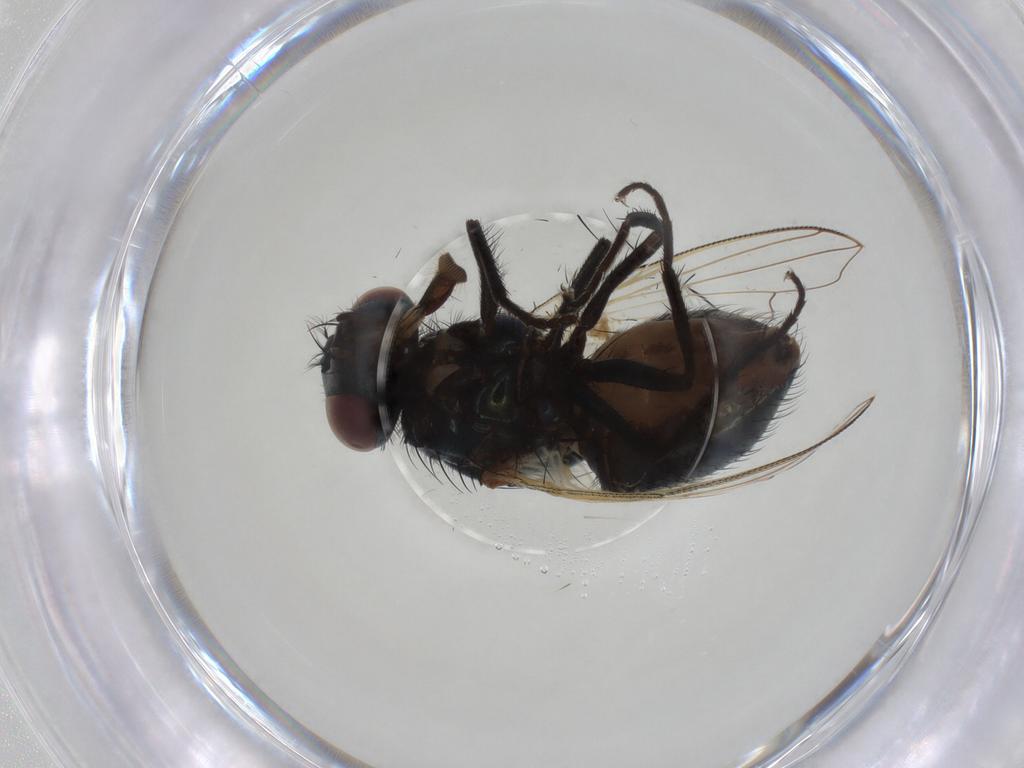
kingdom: Animalia
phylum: Arthropoda
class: Insecta
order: Diptera
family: Muscidae
